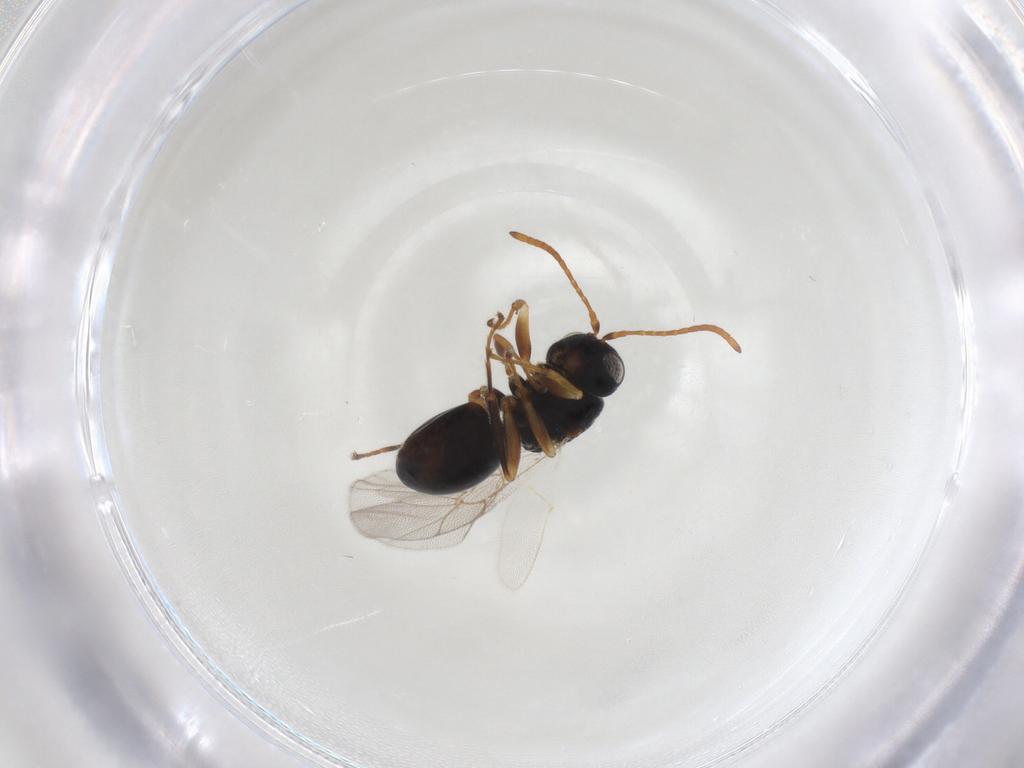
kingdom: Animalia
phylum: Arthropoda
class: Insecta
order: Hymenoptera
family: Cynipidae
